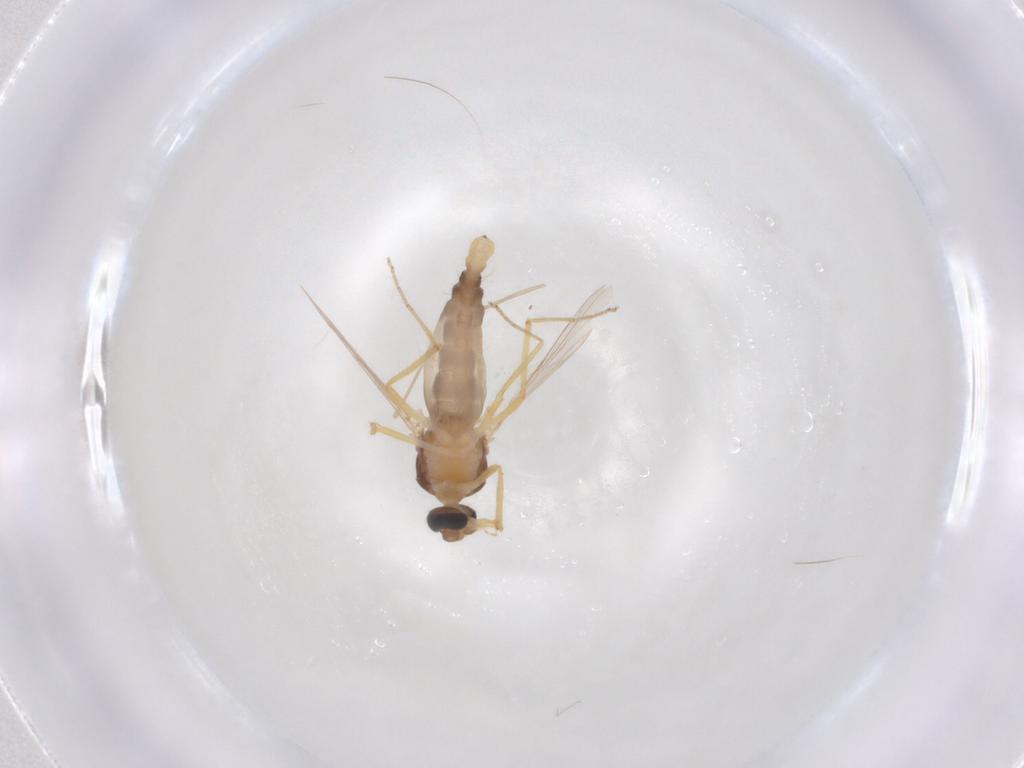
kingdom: Animalia
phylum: Arthropoda
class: Insecta
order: Diptera
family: Ceratopogonidae
